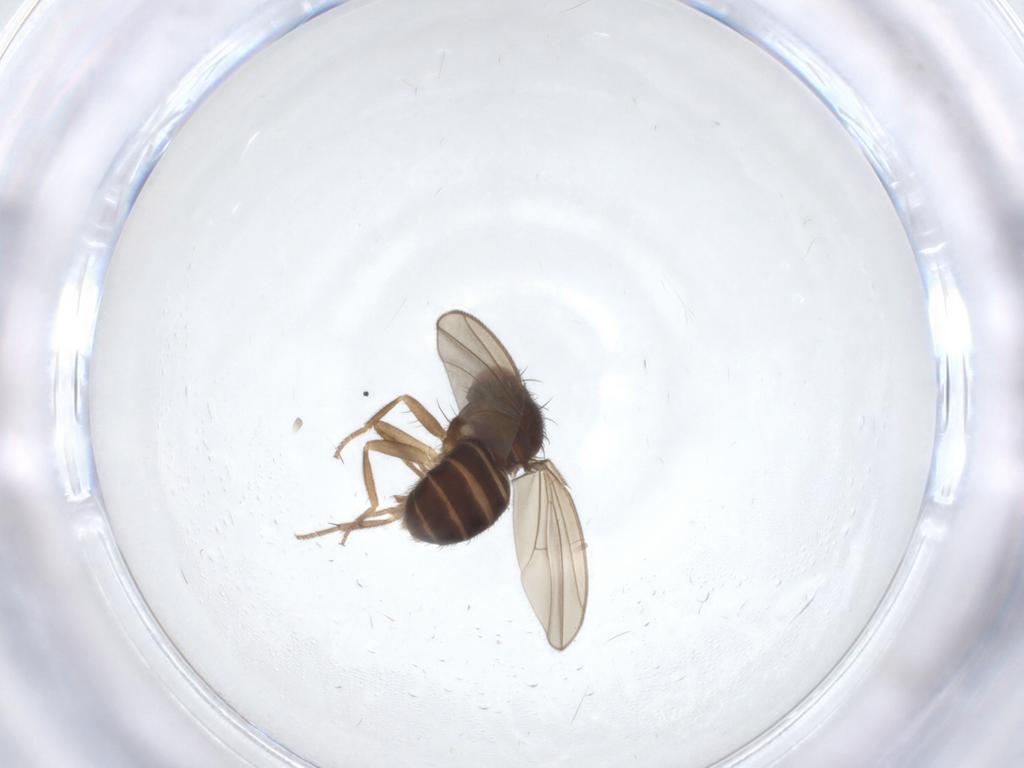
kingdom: Animalia
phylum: Arthropoda
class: Insecta
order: Diptera
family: Drosophilidae
